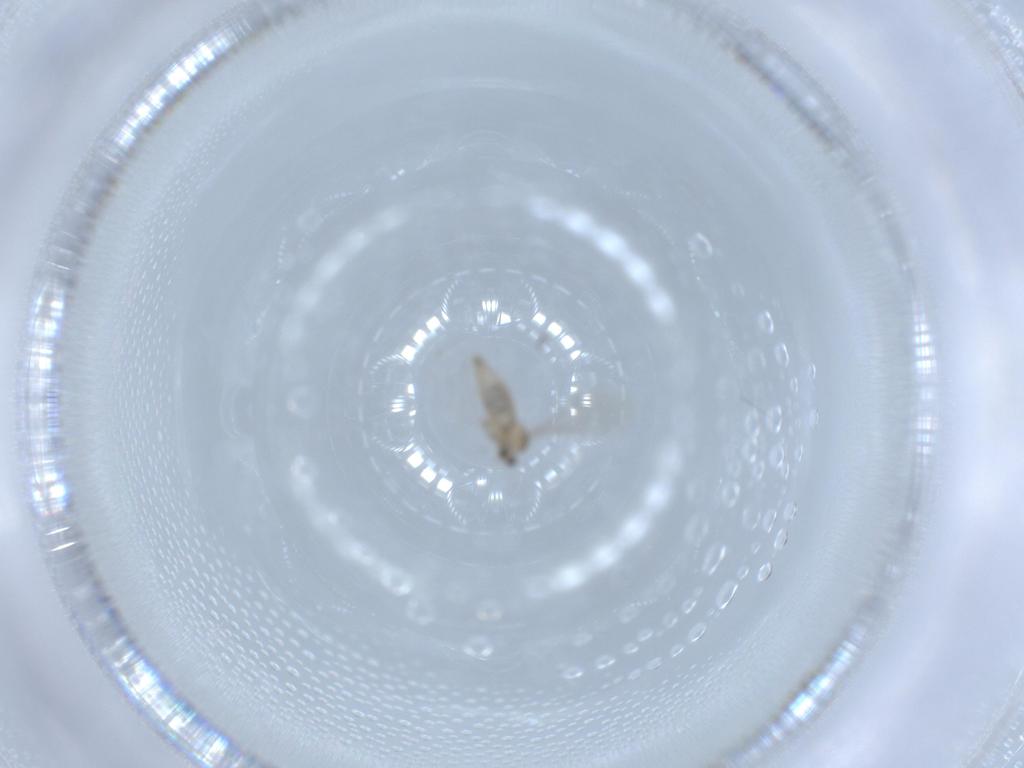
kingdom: Animalia
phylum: Arthropoda
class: Insecta
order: Diptera
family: Cecidomyiidae
